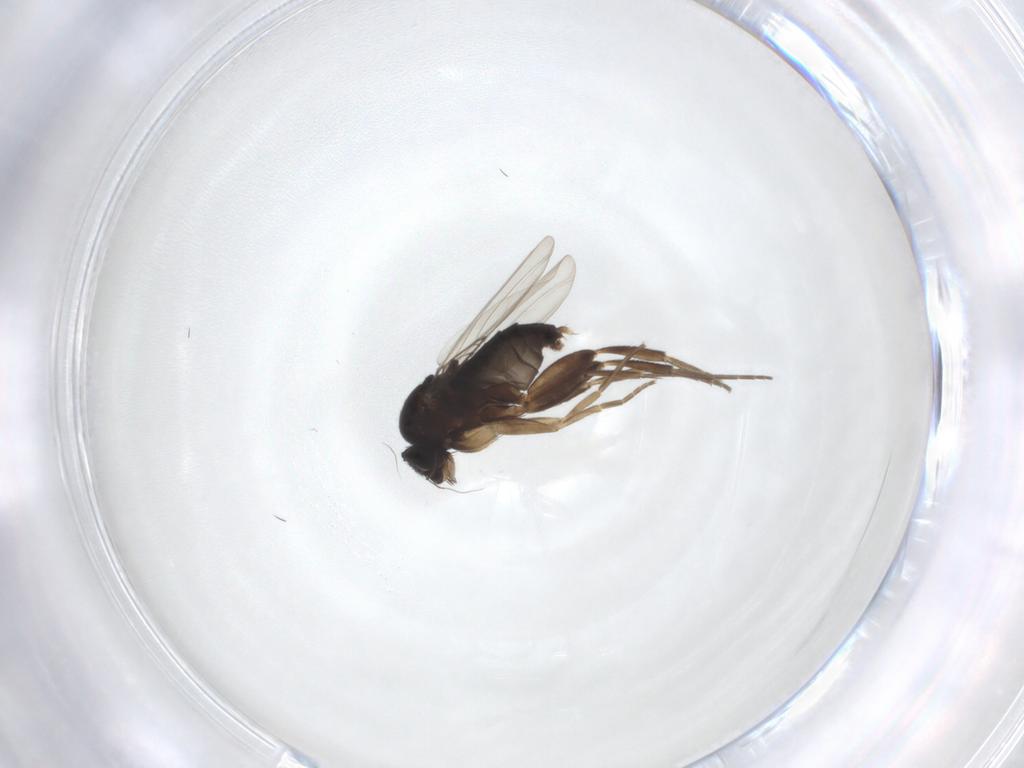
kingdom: Animalia
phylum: Arthropoda
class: Insecta
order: Diptera
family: Phoridae
